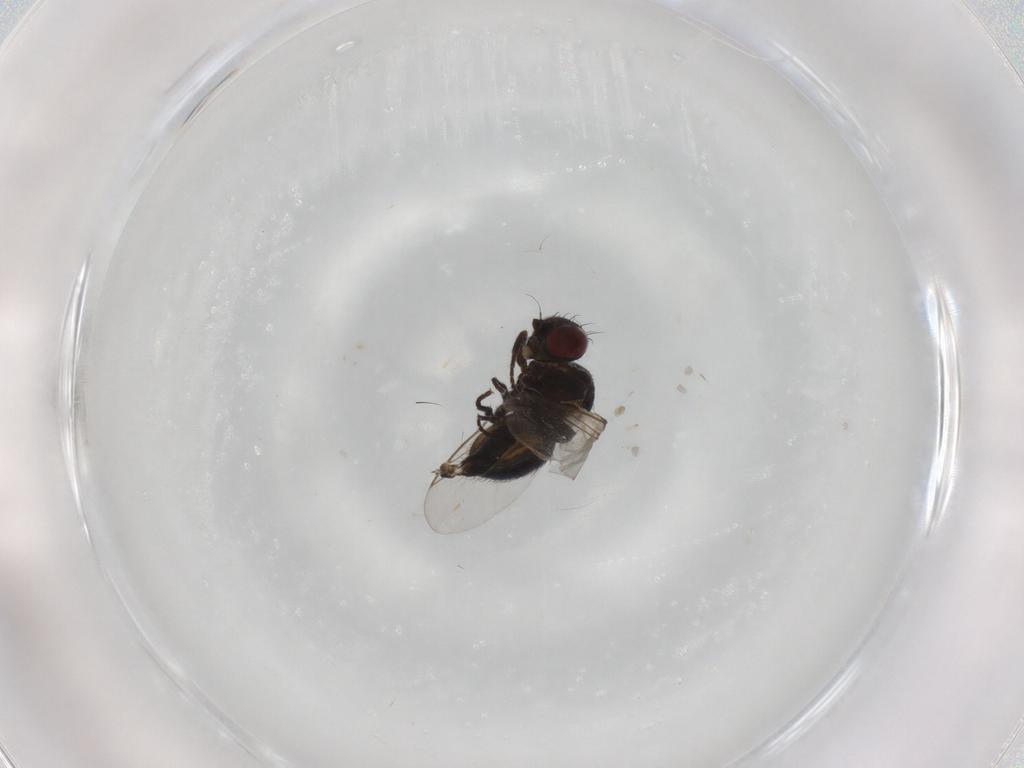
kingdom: Animalia
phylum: Arthropoda
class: Insecta
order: Diptera
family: Agromyzidae
